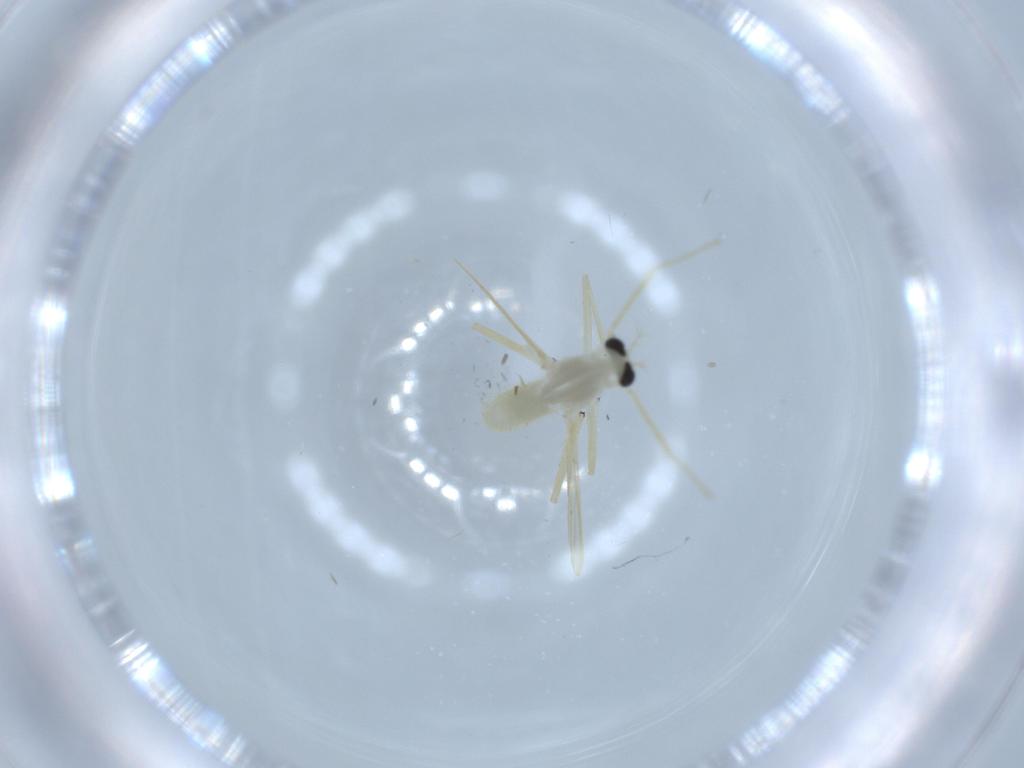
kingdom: Animalia
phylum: Arthropoda
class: Insecta
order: Diptera
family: Chironomidae
